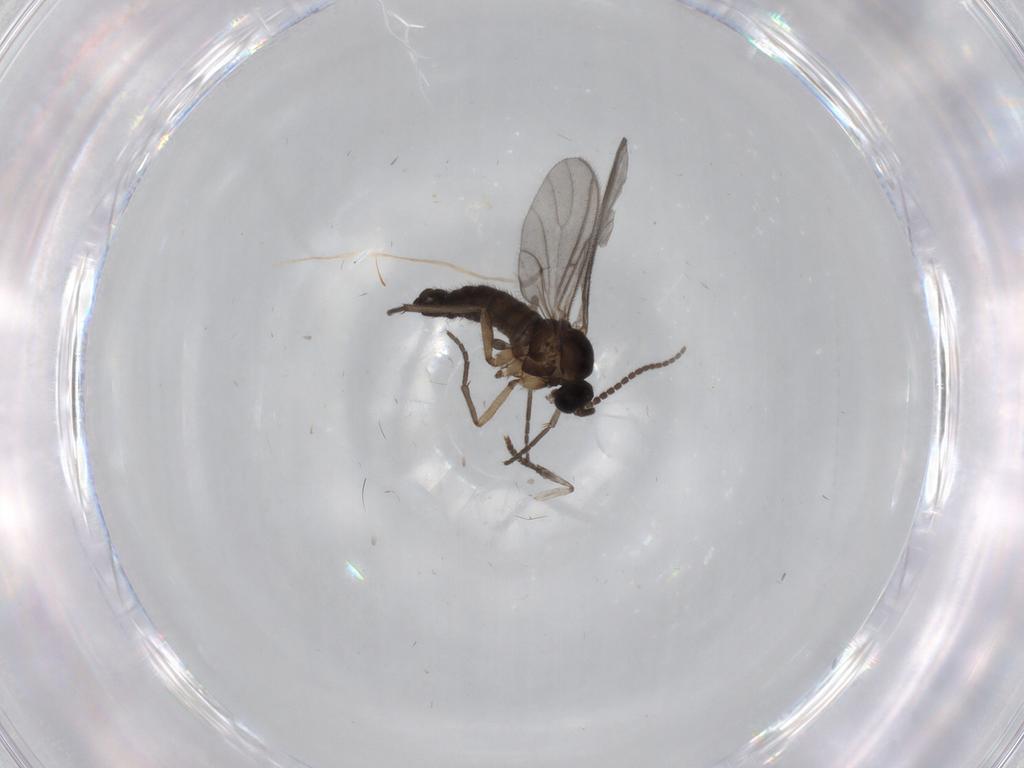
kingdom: Animalia
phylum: Arthropoda
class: Insecta
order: Diptera
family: Sciaridae
